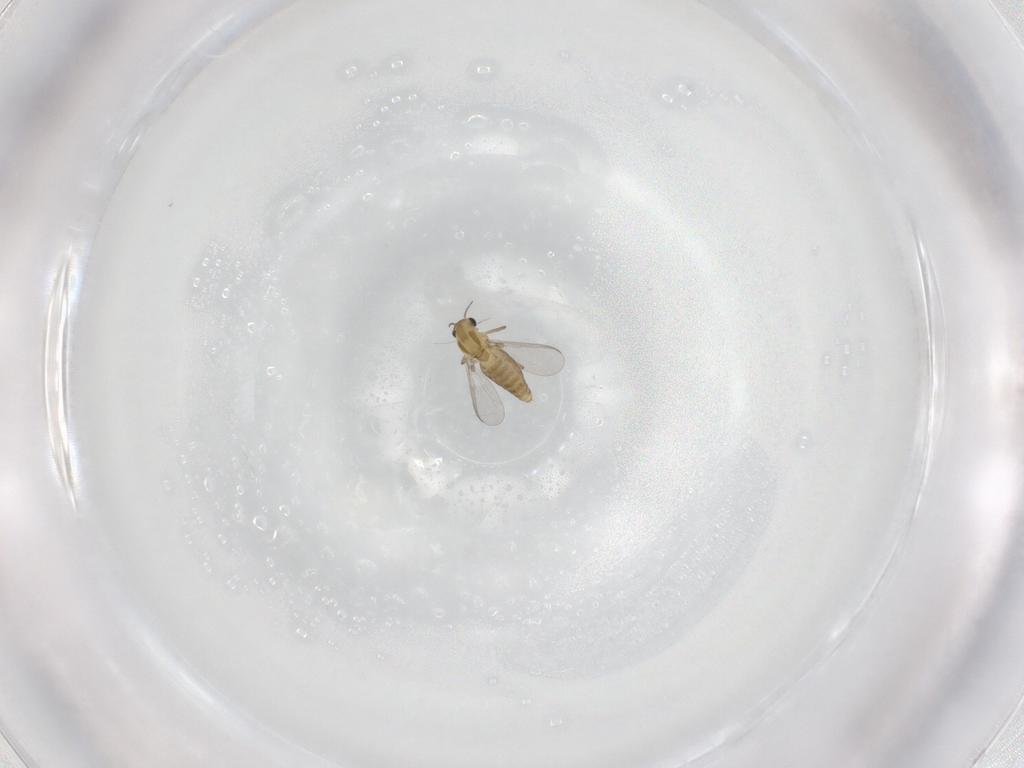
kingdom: Animalia
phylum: Arthropoda
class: Insecta
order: Diptera
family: Chironomidae
